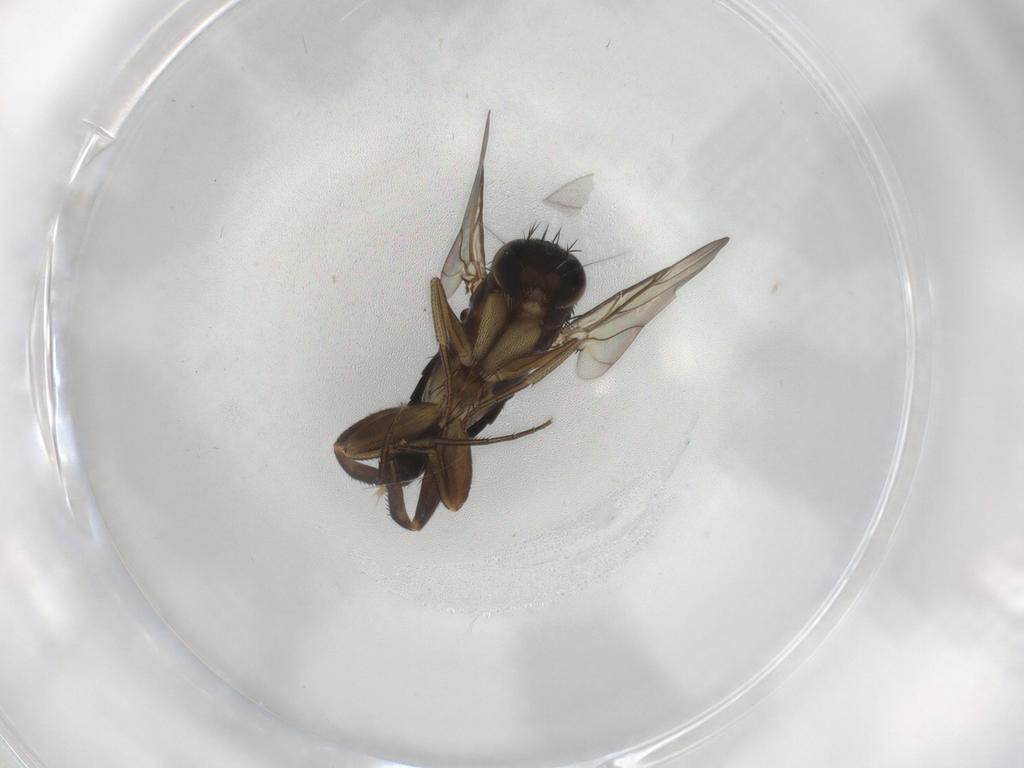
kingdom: Animalia
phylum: Arthropoda
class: Insecta
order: Diptera
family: Phoridae
